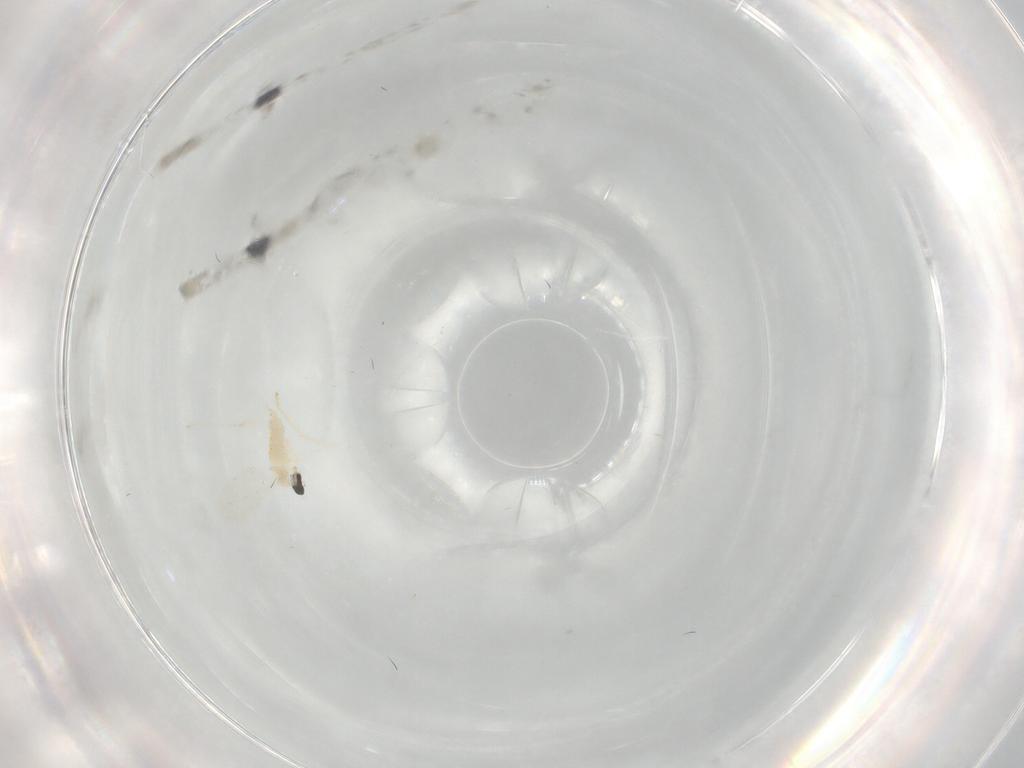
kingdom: Animalia
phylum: Arthropoda
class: Insecta
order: Diptera
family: Cecidomyiidae
